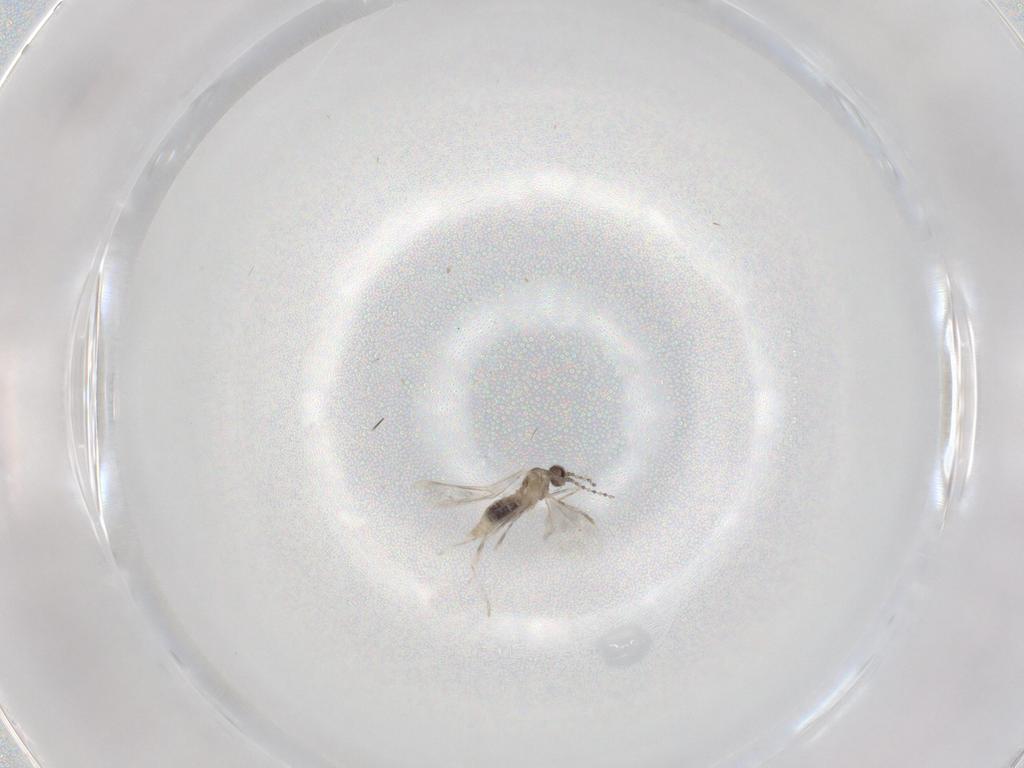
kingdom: Animalia
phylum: Arthropoda
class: Insecta
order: Diptera
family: Cecidomyiidae
